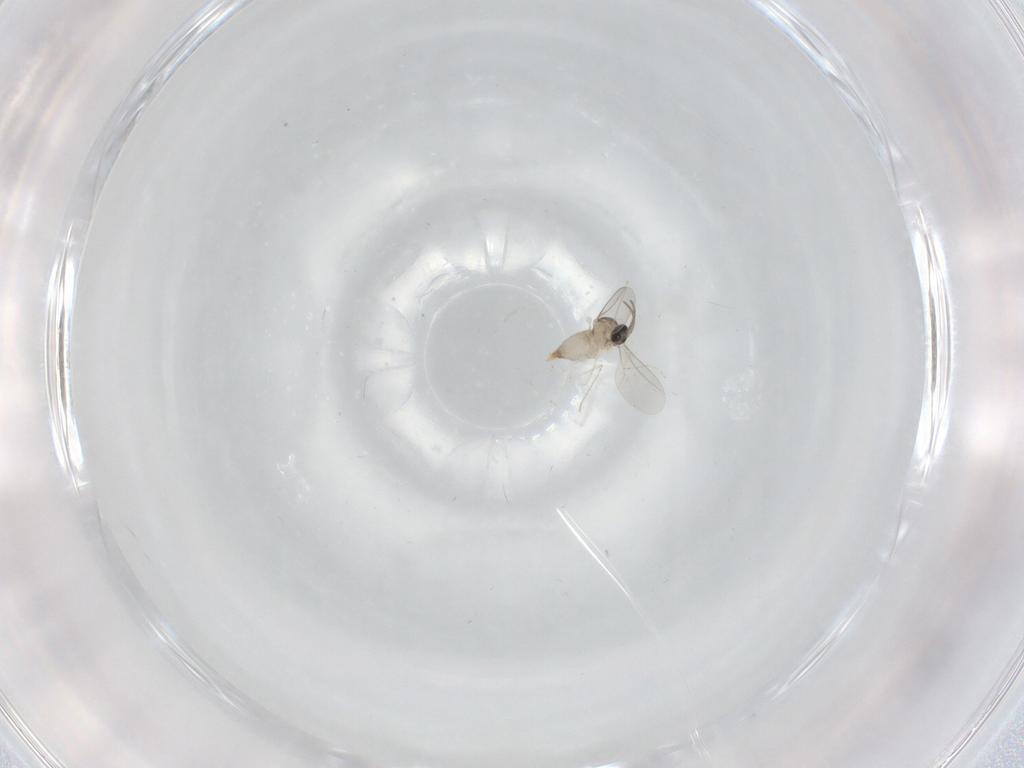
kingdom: Animalia
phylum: Arthropoda
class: Insecta
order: Diptera
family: Cecidomyiidae
